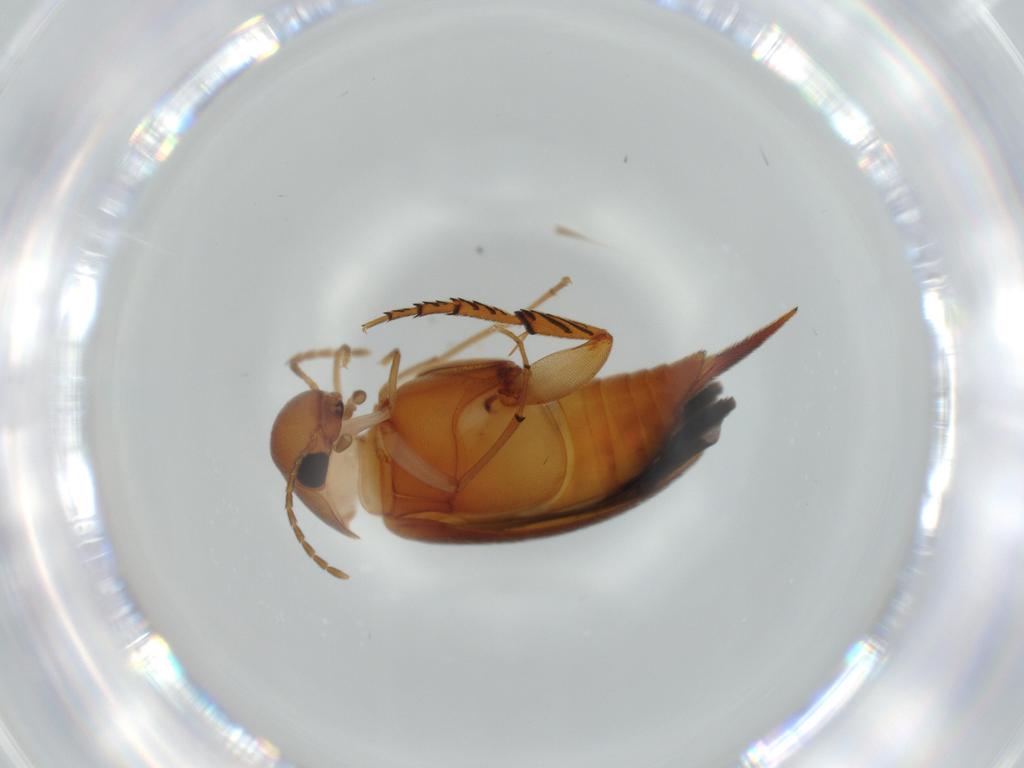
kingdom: Animalia
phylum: Arthropoda
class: Insecta
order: Coleoptera
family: Mordellidae
